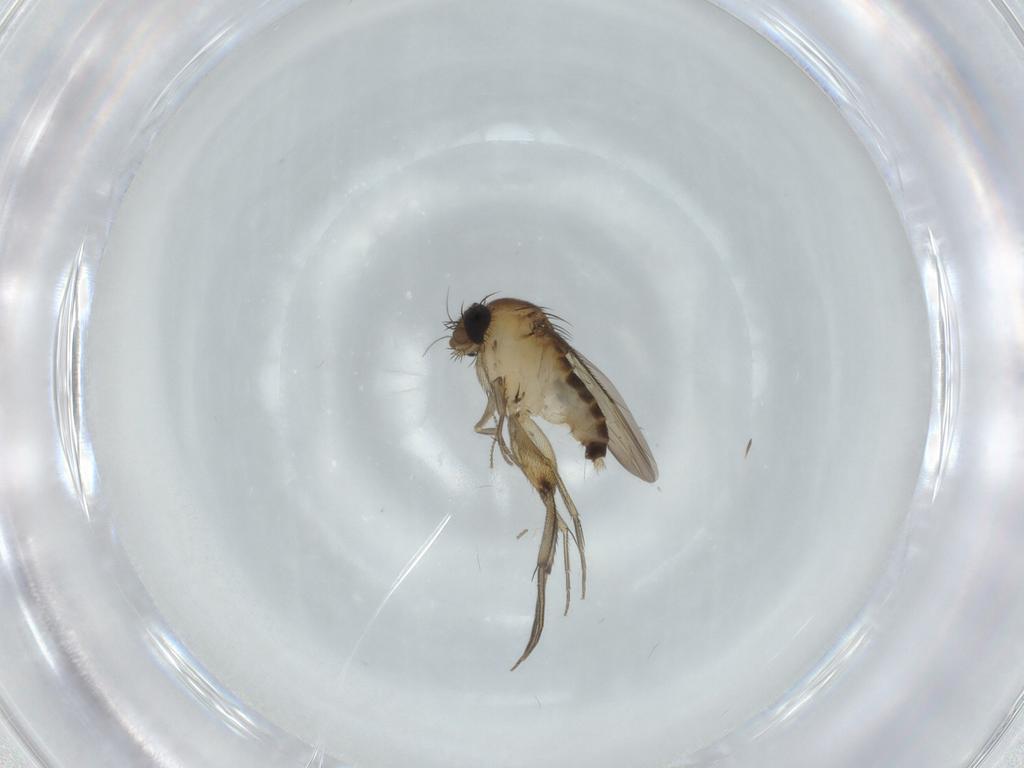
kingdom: Animalia
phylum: Arthropoda
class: Insecta
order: Diptera
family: Phoridae
